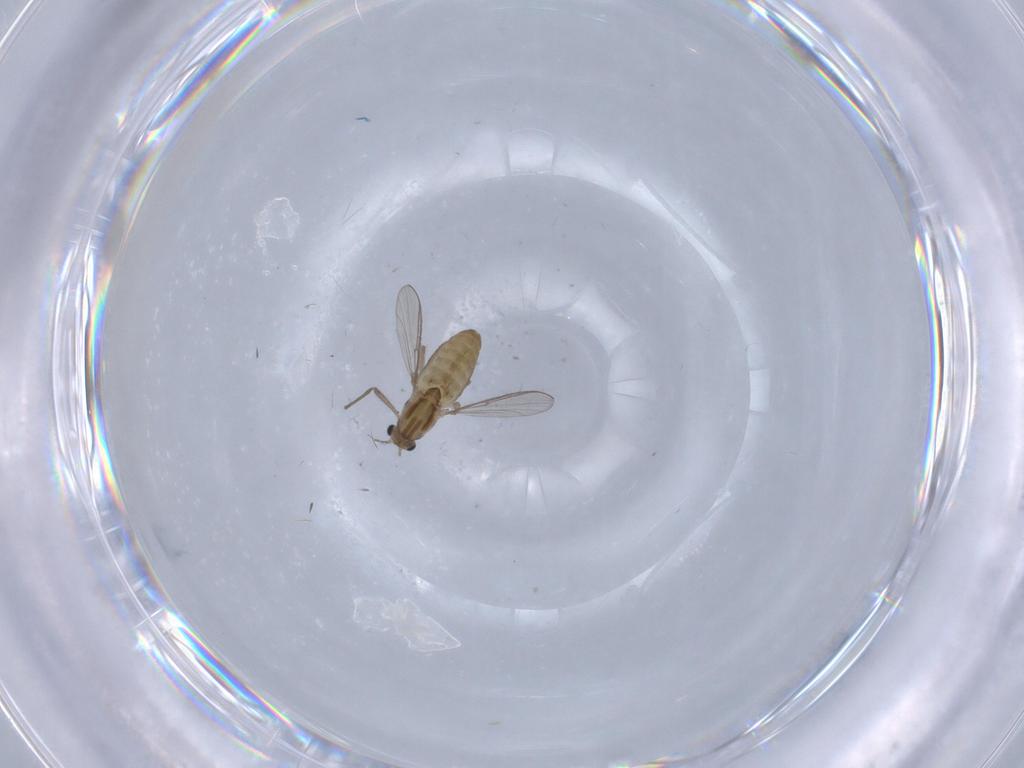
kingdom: Animalia
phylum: Arthropoda
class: Insecta
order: Diptera
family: Chironomidae
